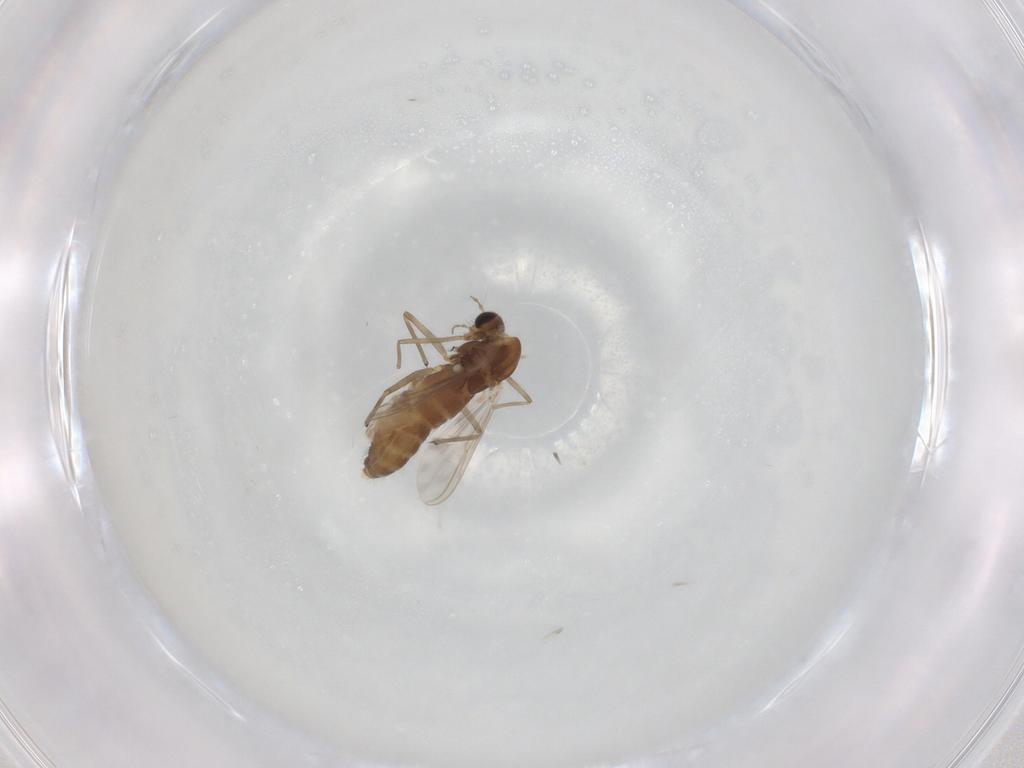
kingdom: Animalia
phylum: Arthropoda
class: Insecta
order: Diptera
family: Chironomidae
